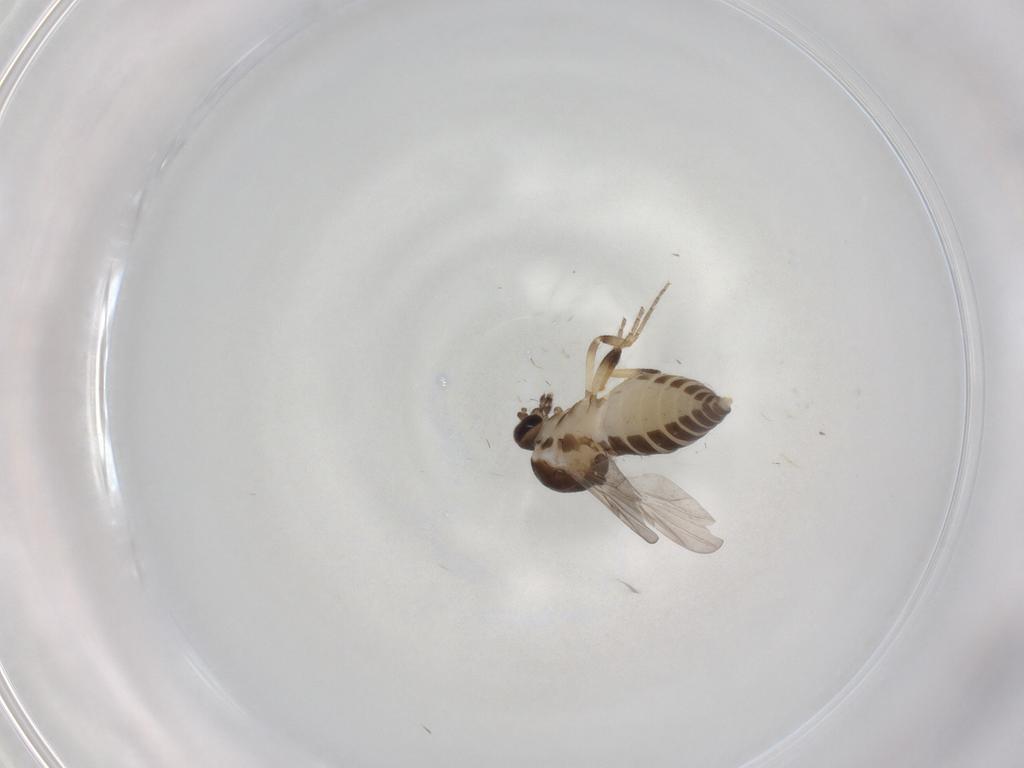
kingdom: Animalia
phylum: Arthropoda
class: Insecta
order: Diptera
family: Ceratopogonidae
